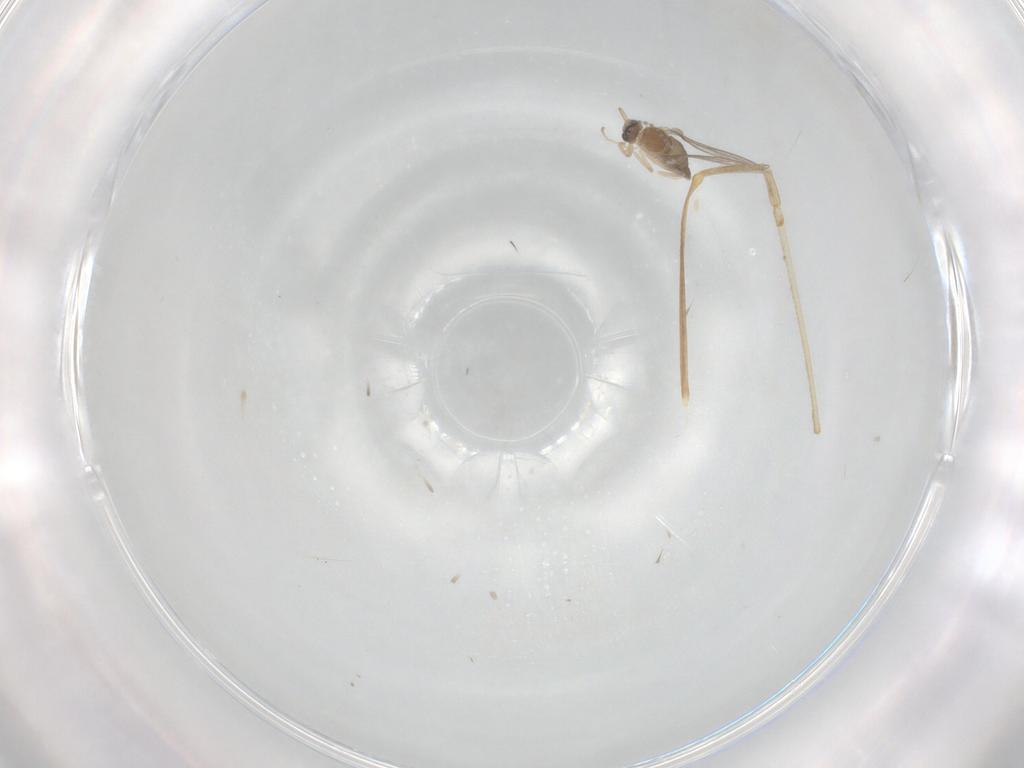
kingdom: Animalia
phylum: Arthropoda
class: Insecta
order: Diptera
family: Cecidomyiidae
